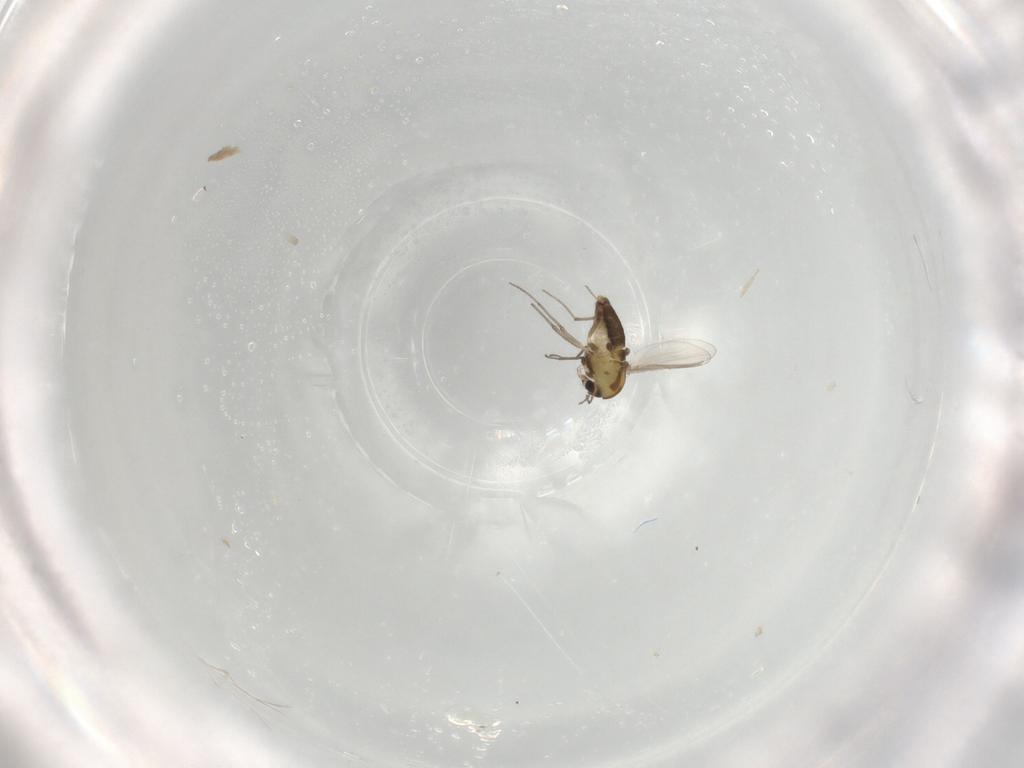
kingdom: Animalia
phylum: Arthropoda
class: Insecta
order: Diptera
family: Chironomidae
